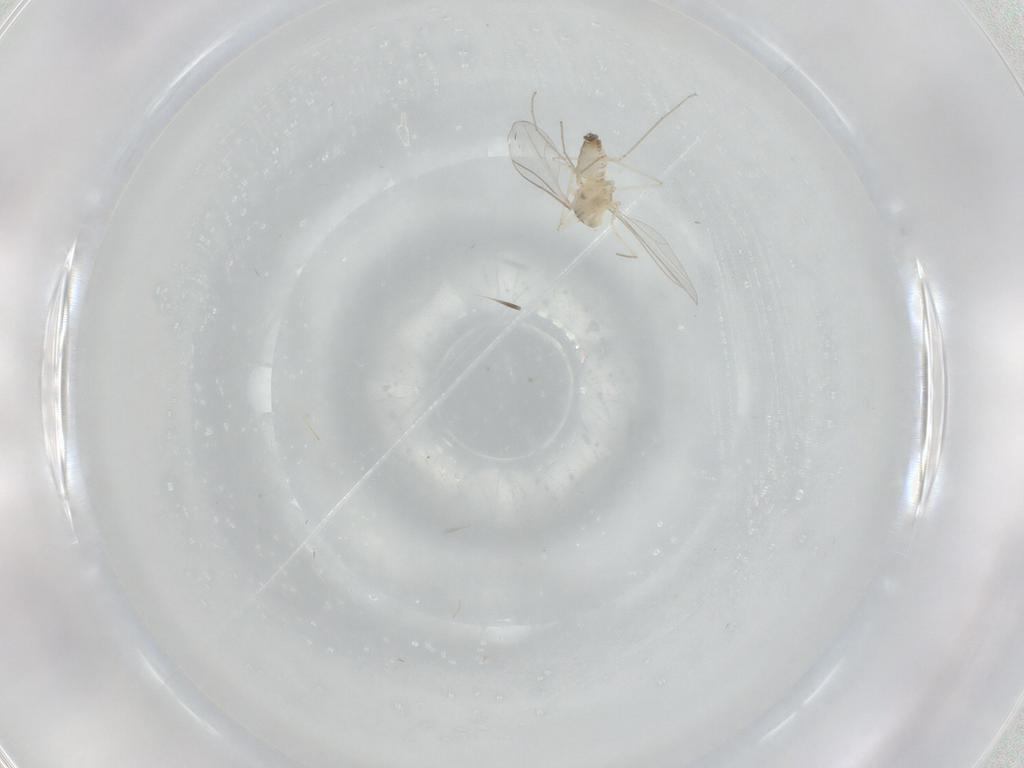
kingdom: Animalia
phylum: Arthropoda
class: Insecta
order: Diptera
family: Cecidomyiidae
